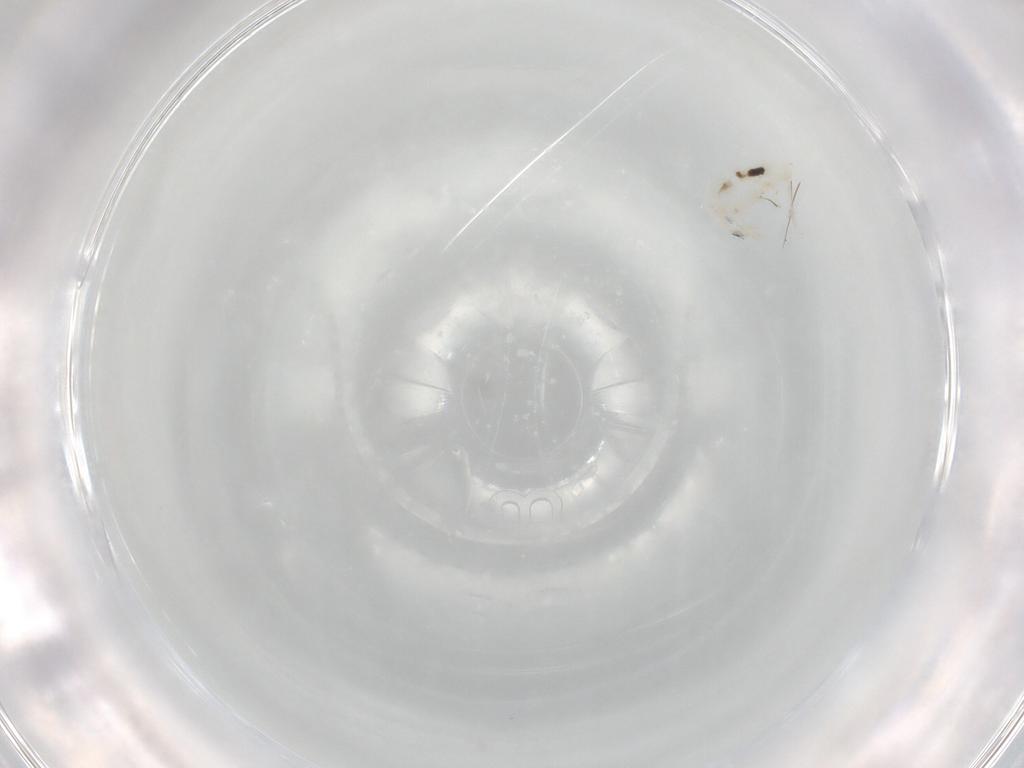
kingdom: Animalia
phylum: Arthropoda
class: Collembola
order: Entomobryomorpha
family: Entomobryidae
